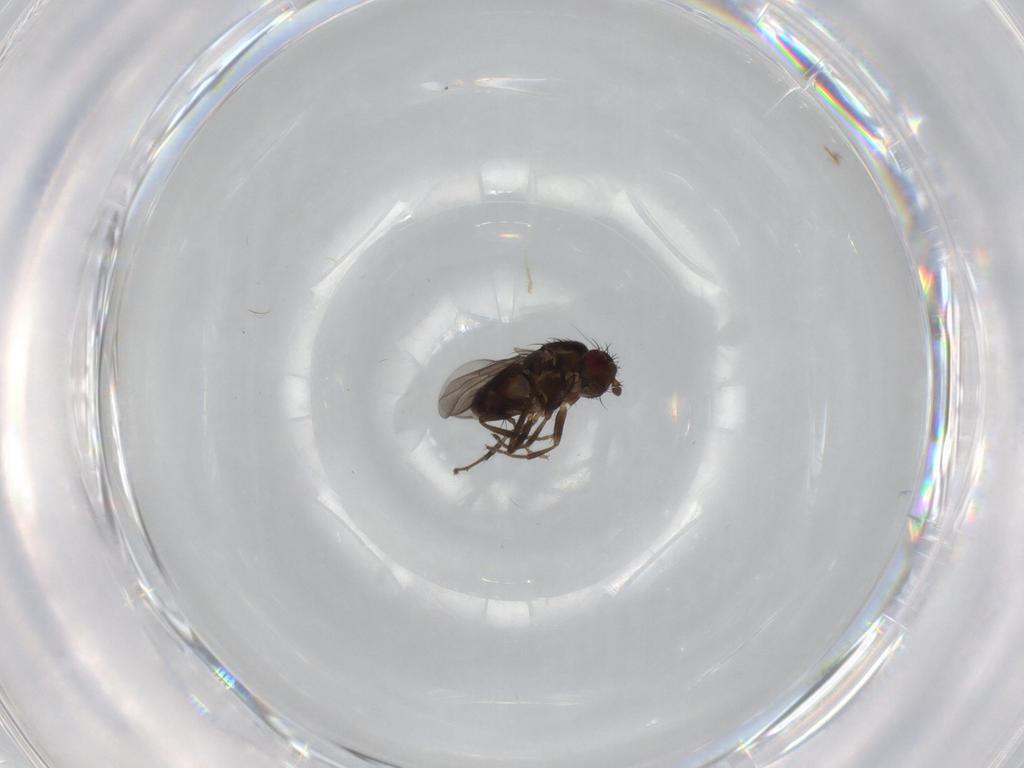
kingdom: Animalia
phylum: Arthropoda
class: Insecta
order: Diptera
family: Sphaeroceridae
